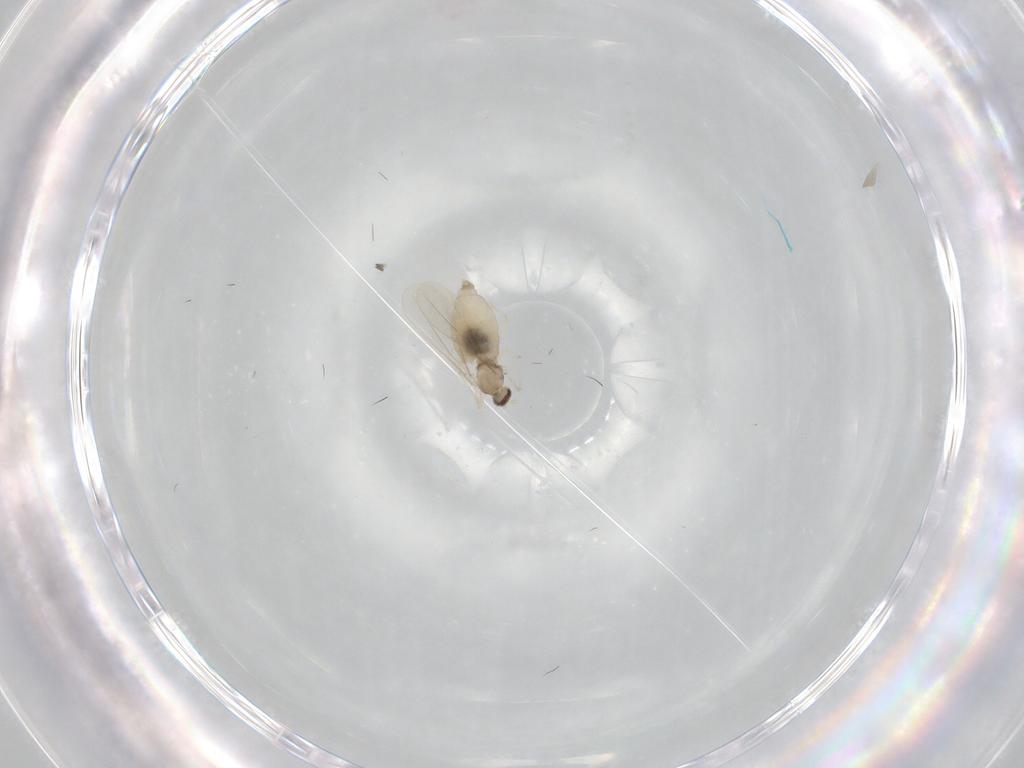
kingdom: Animalia
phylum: Arthropoda
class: Insecta
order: Diptera
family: Cecidomyiidae
